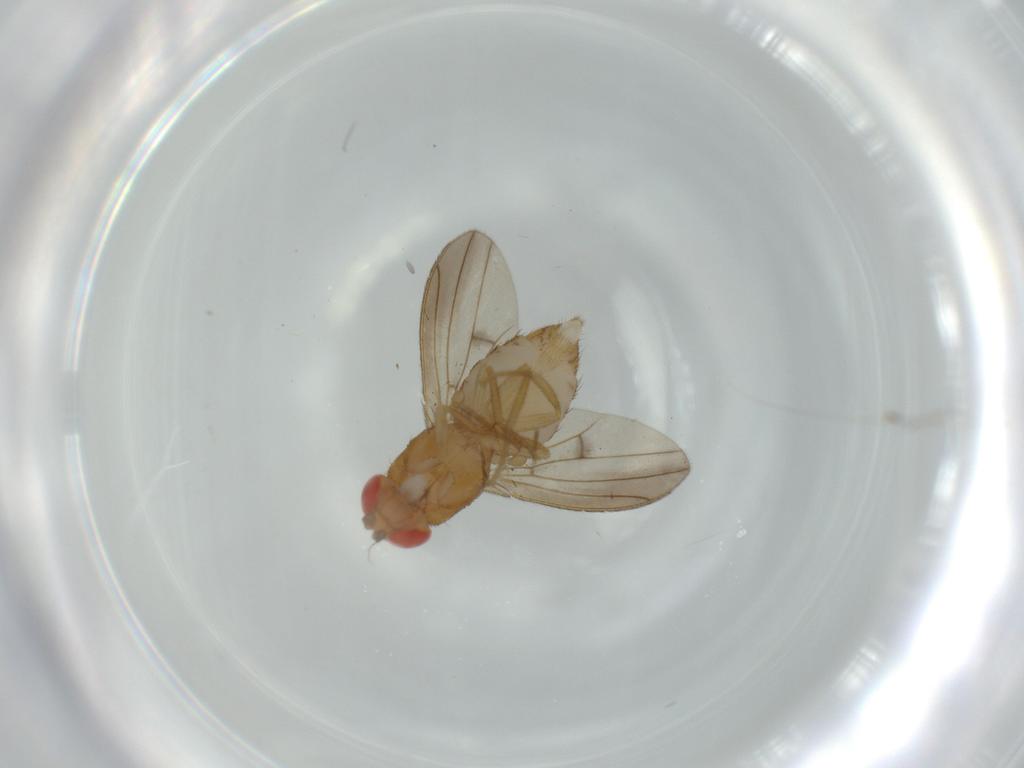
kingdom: Animalia
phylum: Arthropoda
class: Insecta
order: Diptera
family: Drosophilidae
